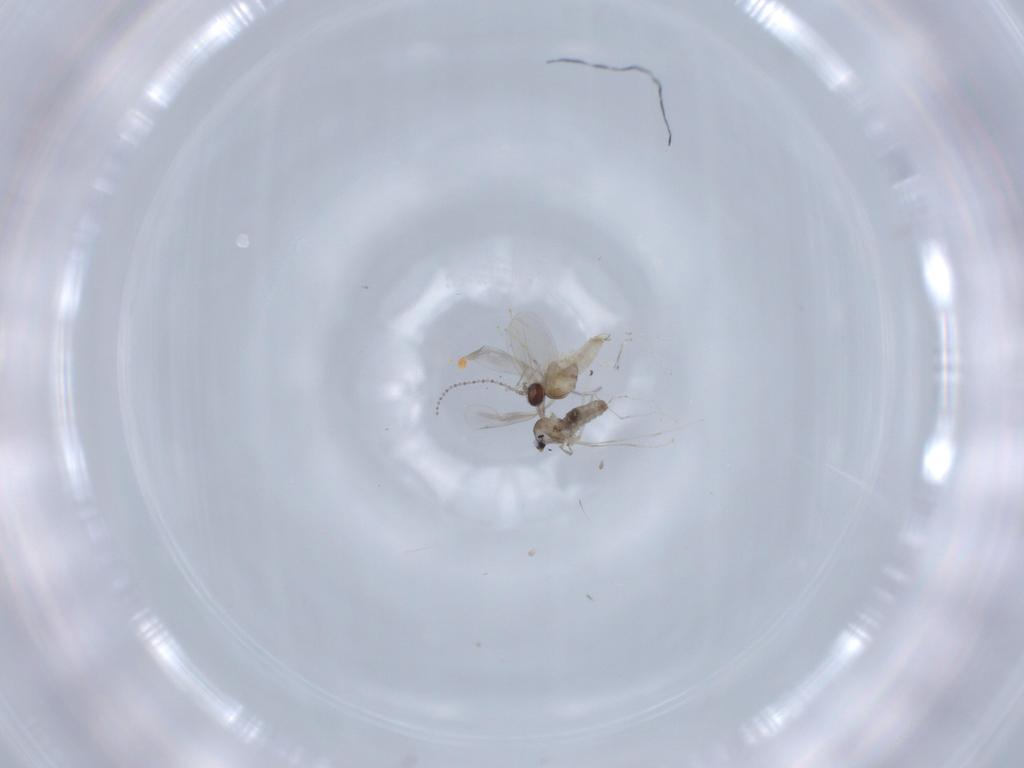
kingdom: Animalia
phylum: Arthropoda
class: Insecta
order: Diptera
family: Cecidomyiidae
